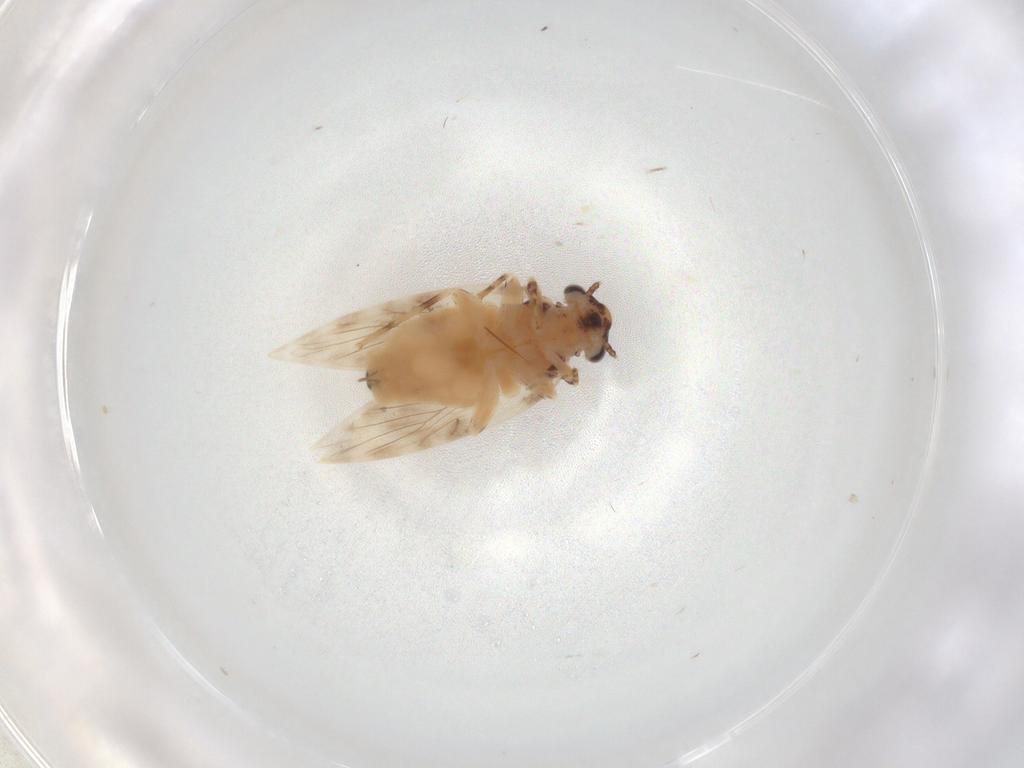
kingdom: Animalia
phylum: Arthropoda
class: Insecta
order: Psocodea
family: Lepidopsocidae
